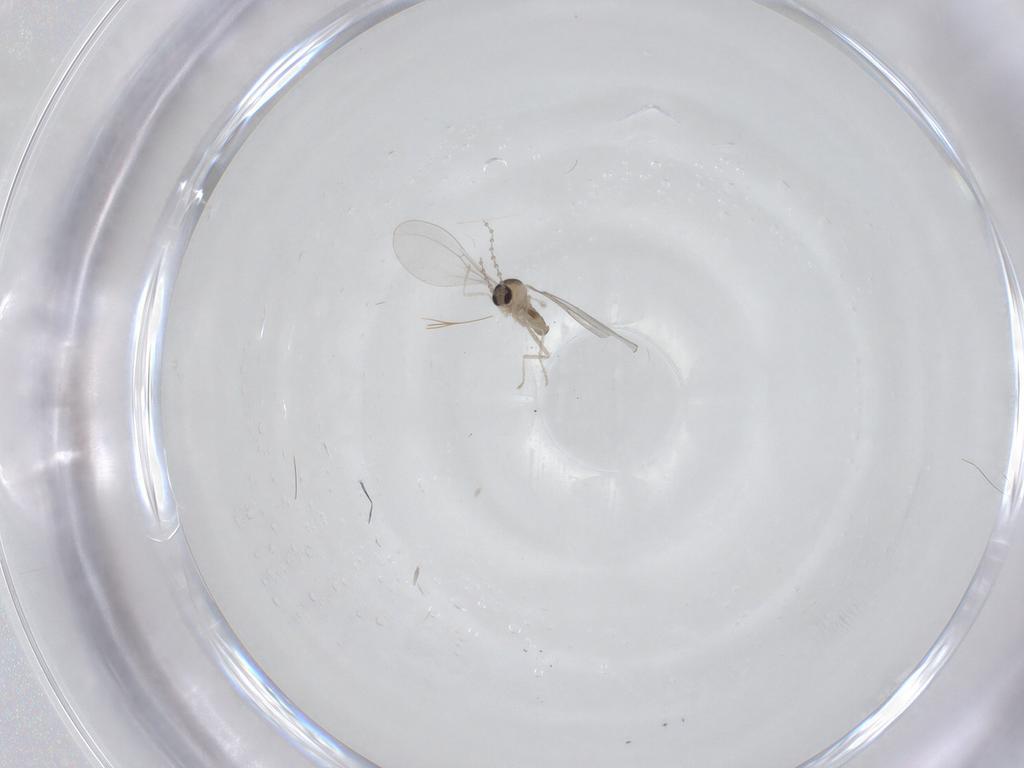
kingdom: Animalia
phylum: Arthropoda
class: Insecta
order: Diptera
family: Cecidomyiidae
